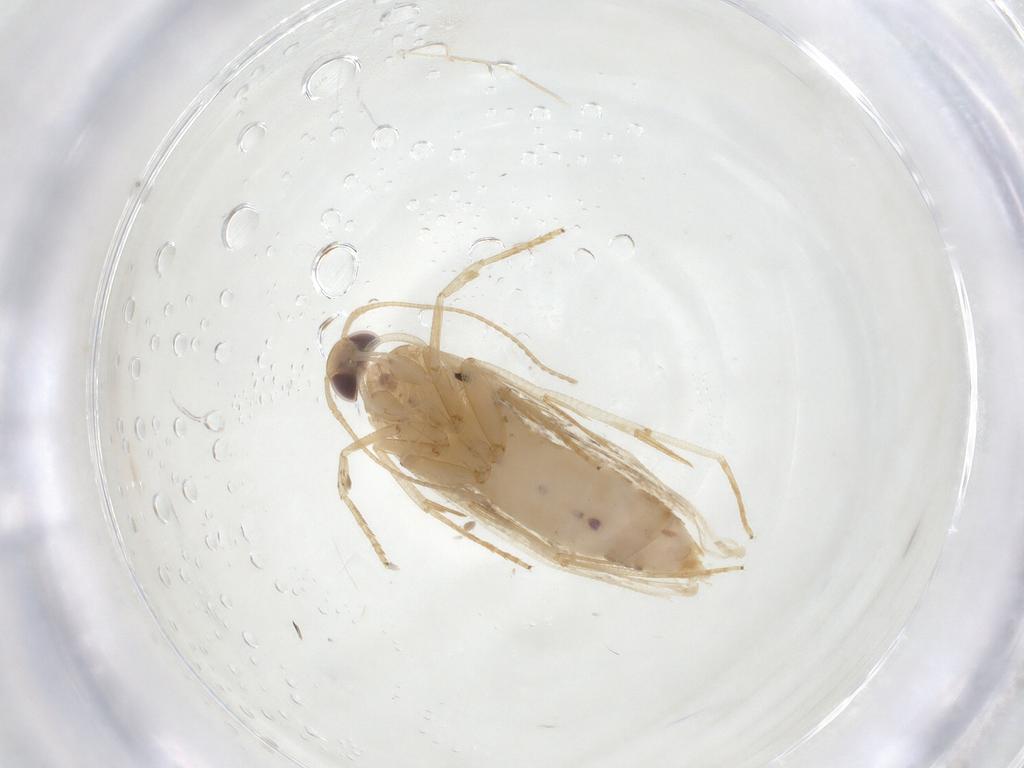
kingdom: Animalia
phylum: Arthropoda
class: Insecta
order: Lepidoptera
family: Cosmopterigidae
